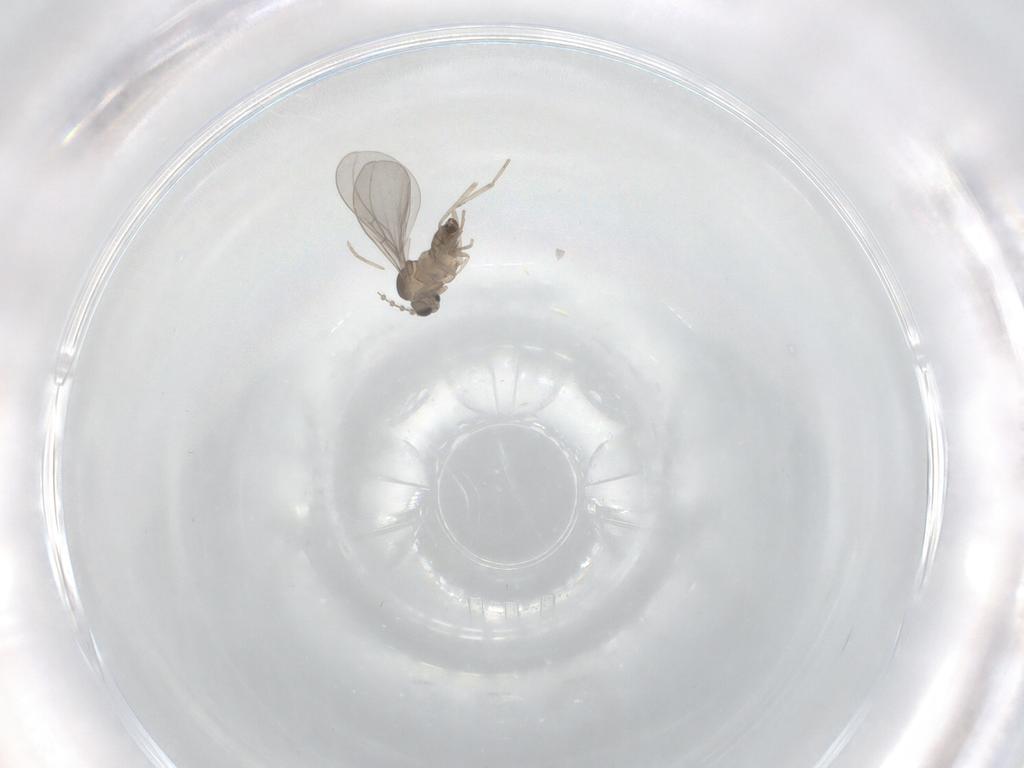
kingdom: Animalia
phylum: Arthropoda
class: Insecta
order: Diptera
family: Cecidomyiidae
